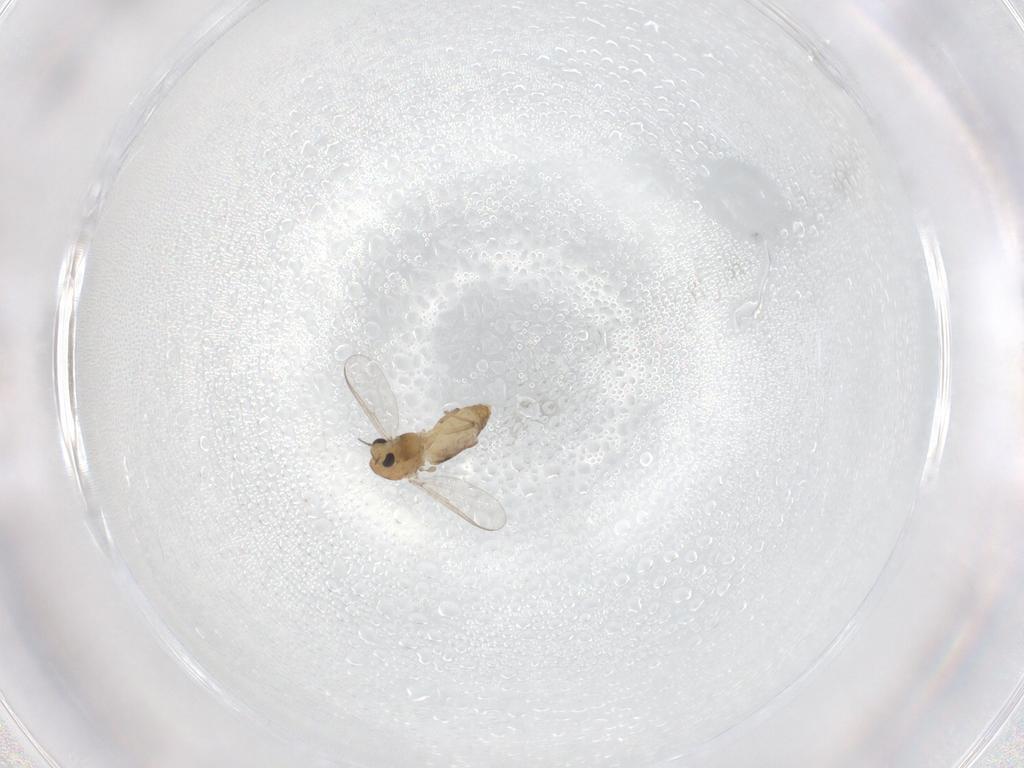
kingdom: Animalia
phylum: Arthropoda
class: Insecta
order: Diptera
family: Chironomidae
